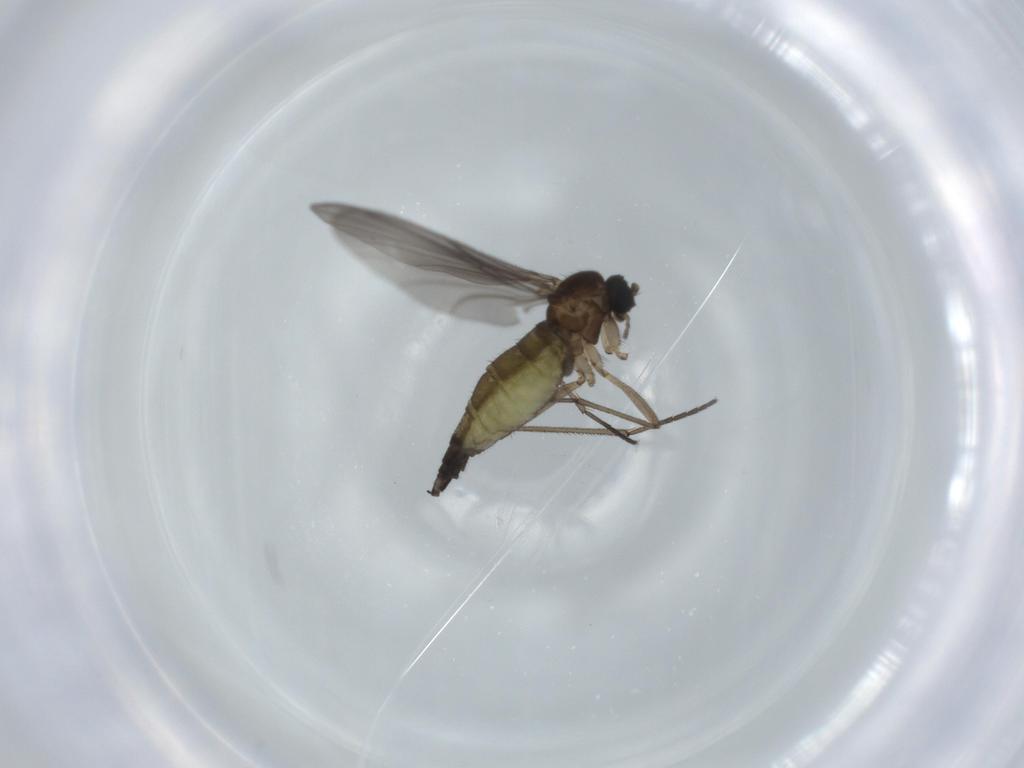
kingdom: Animalia
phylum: Arthropoda
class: Insecta
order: Diptera
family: Sciaridae
